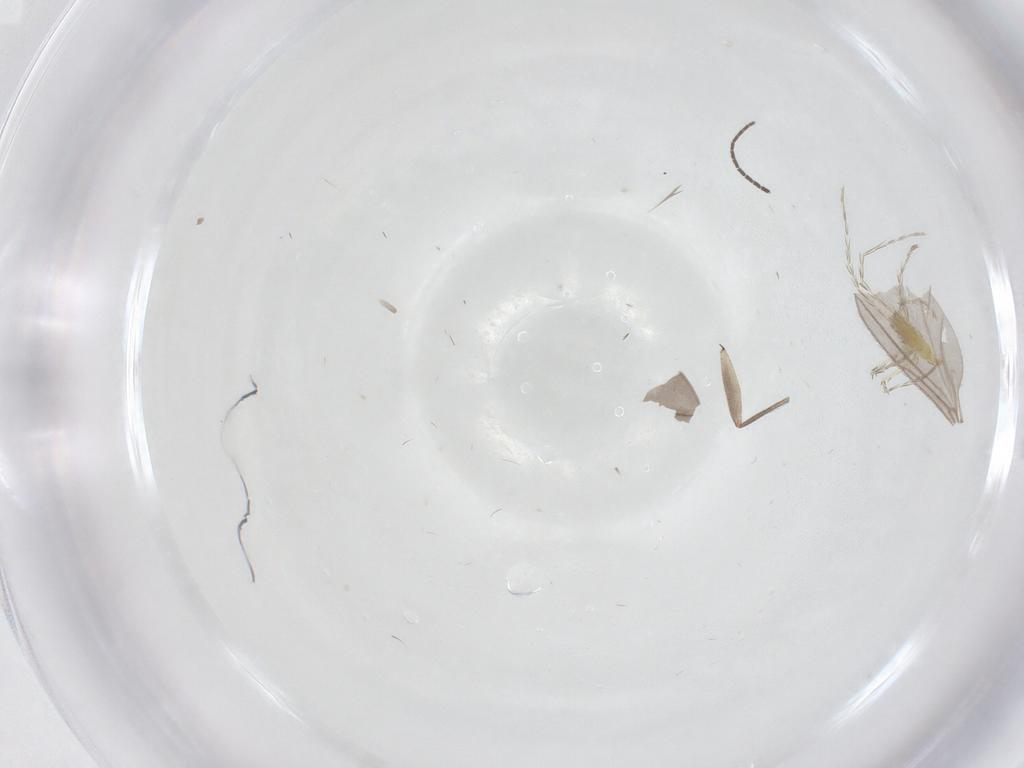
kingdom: Animalia
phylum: Arthropoda
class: Insecta
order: Diptera
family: Sciaridae
